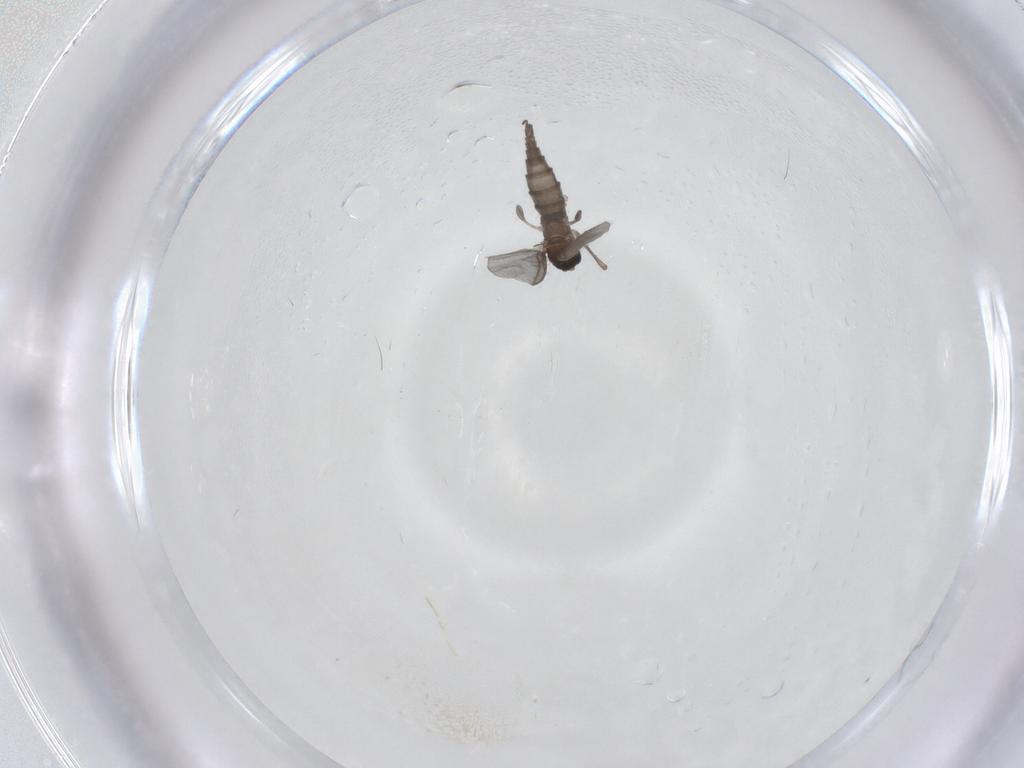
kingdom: Animalia
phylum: Arthropoda
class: Insecta
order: Diptera
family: Sciaridae
